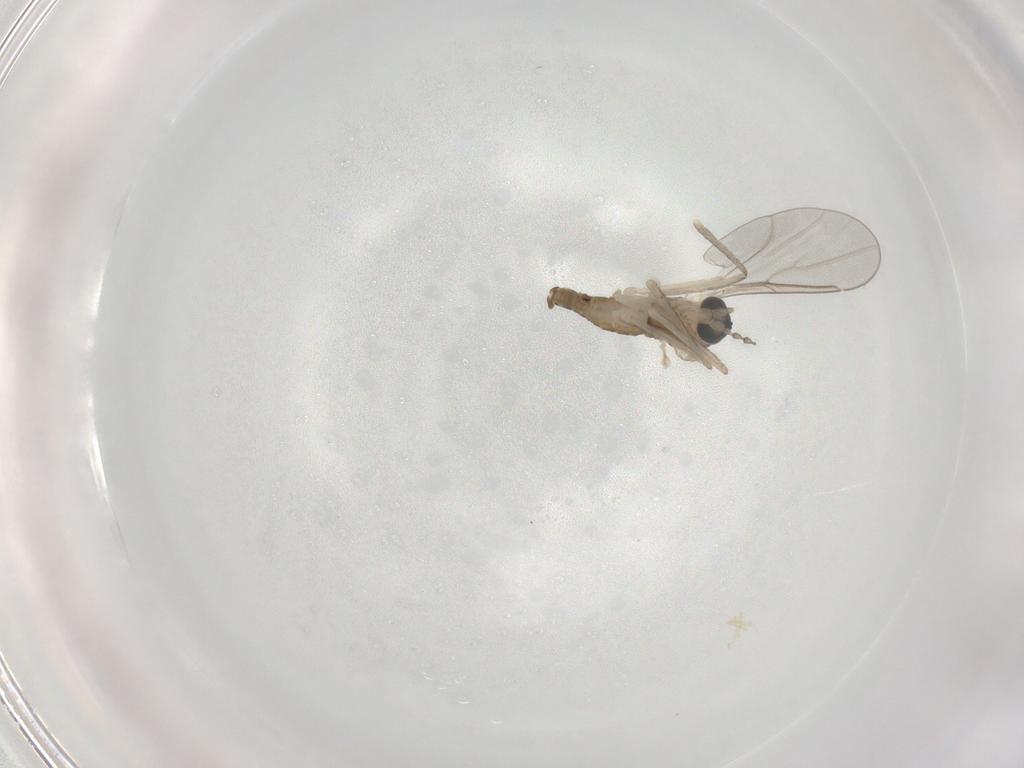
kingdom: Animalia
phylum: Arthropoda
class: Insecta
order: Diptera
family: Cecidomyiidae
